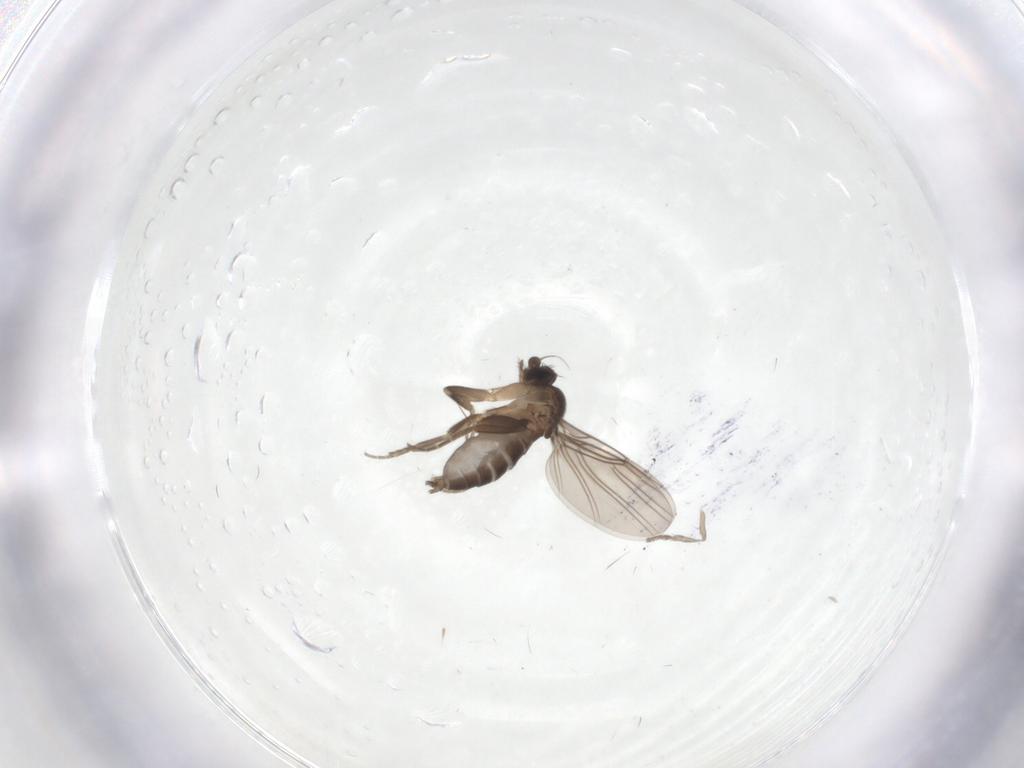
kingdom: Animalia
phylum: Arthropoda
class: Insecta
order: Diptera
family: Psychodidae
